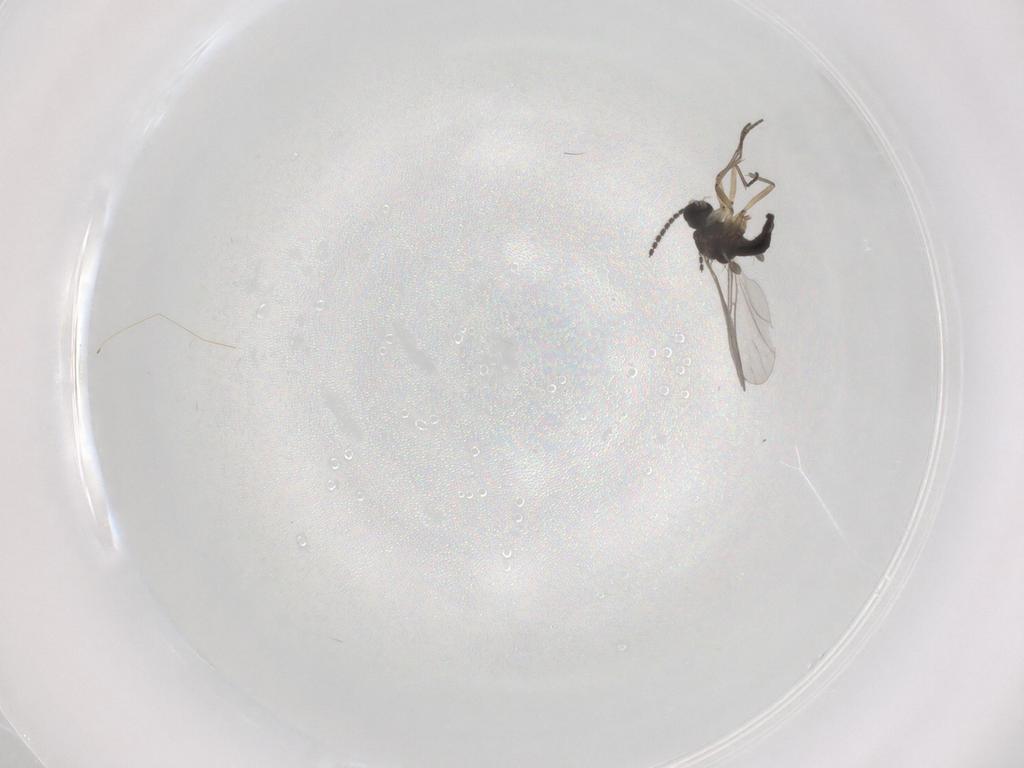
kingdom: Animalia
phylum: Arthropoda
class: Insecta
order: Diptera
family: Sciaridae
